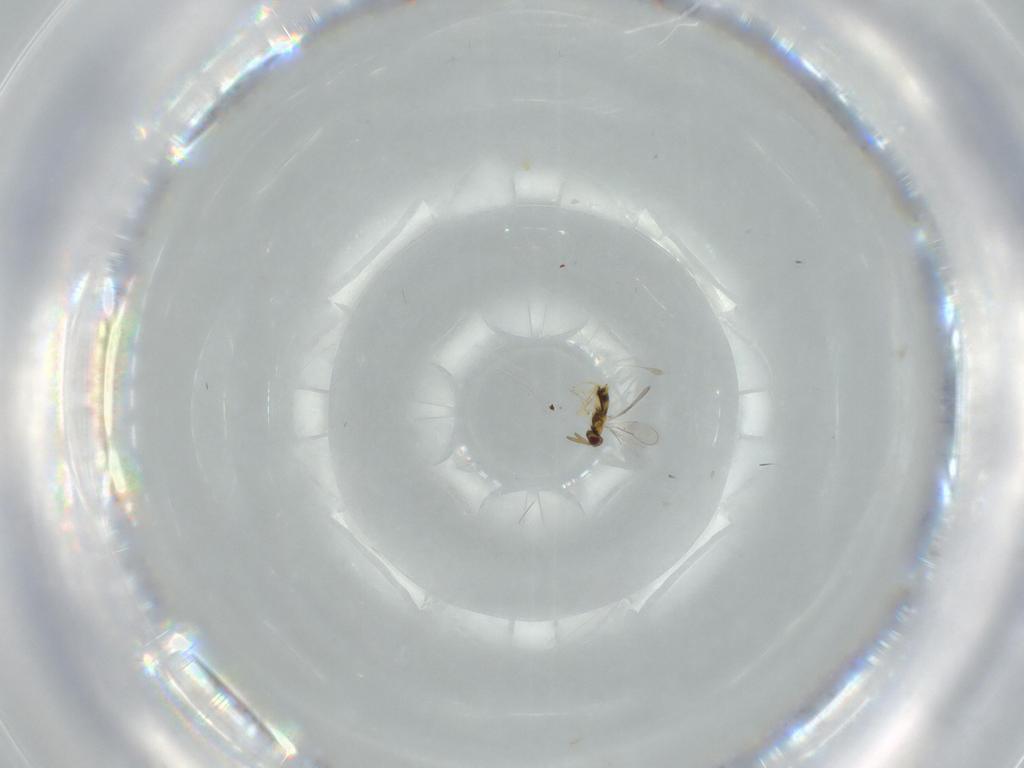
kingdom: Animalia
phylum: Arthropoda
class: Insecta
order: Hymenoptera
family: Aphelinidae
